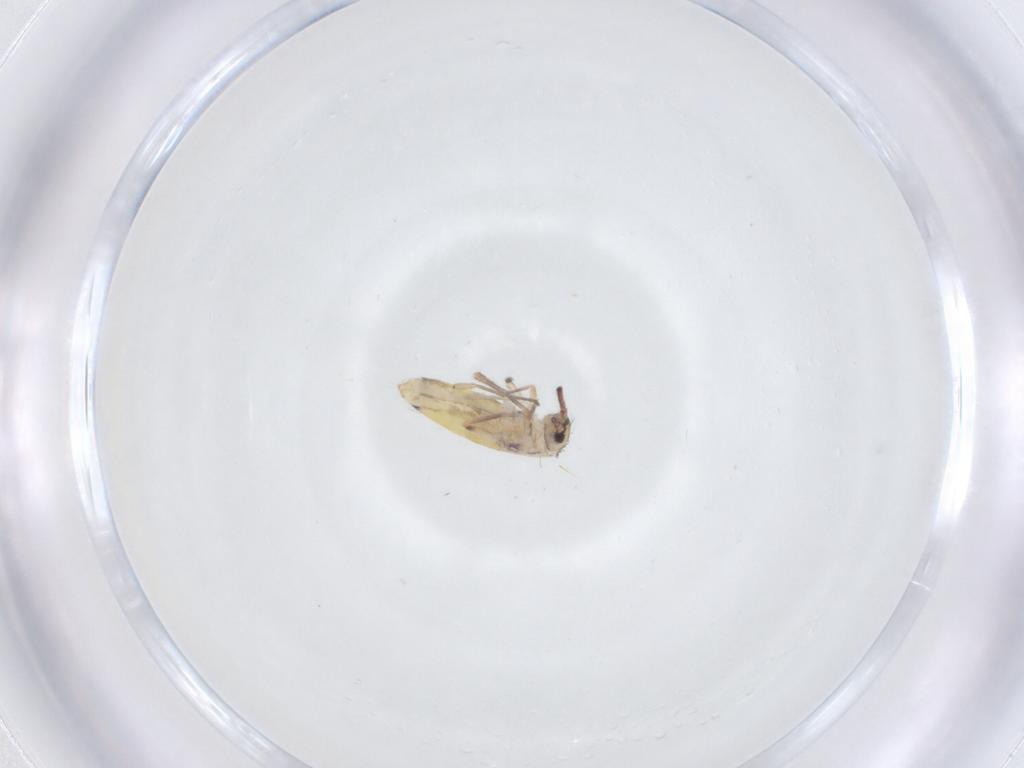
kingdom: Animalia
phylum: Arthropoda
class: Collembola
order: Entomobryomorpha
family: Entomobryidae
